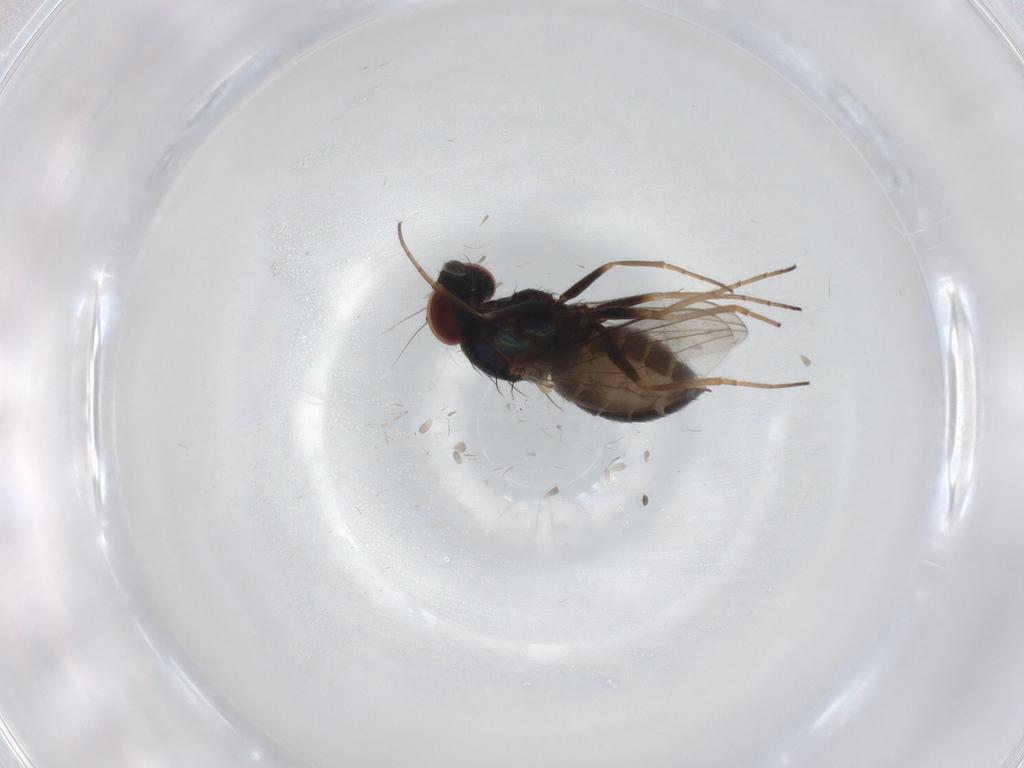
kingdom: Animalia
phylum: Arthropoda
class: Insecta
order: Diptera
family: Dolichopodidae
